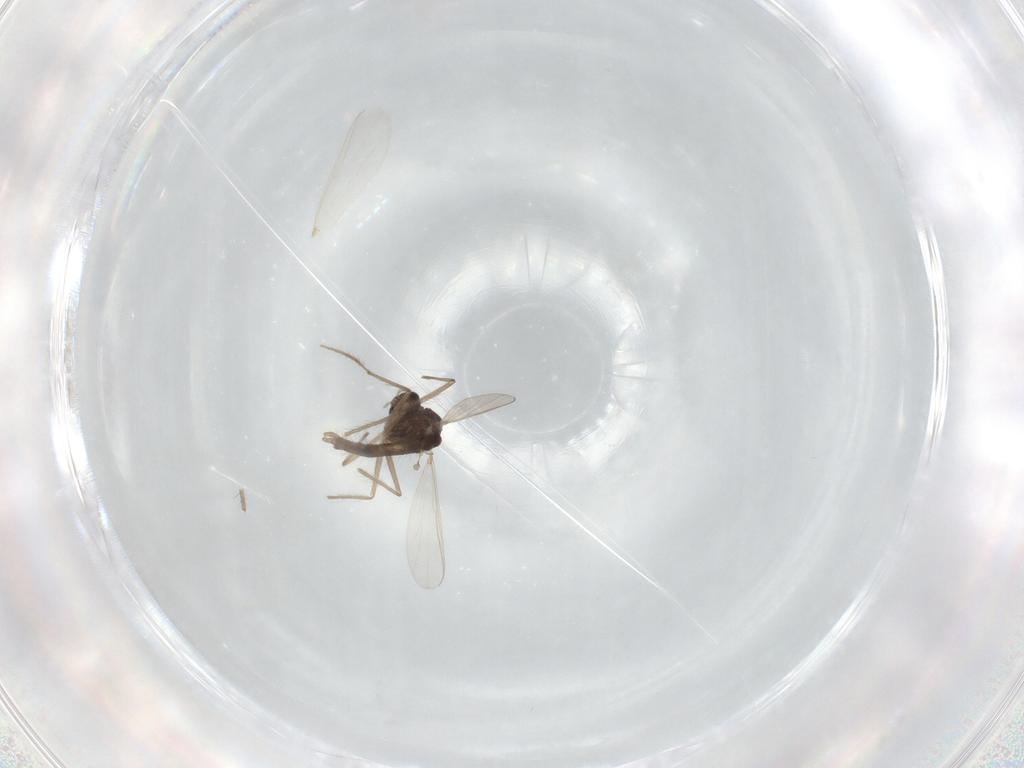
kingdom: Animalia
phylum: Arthropoda
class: Insecta
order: Diptera
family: Chironomidae
